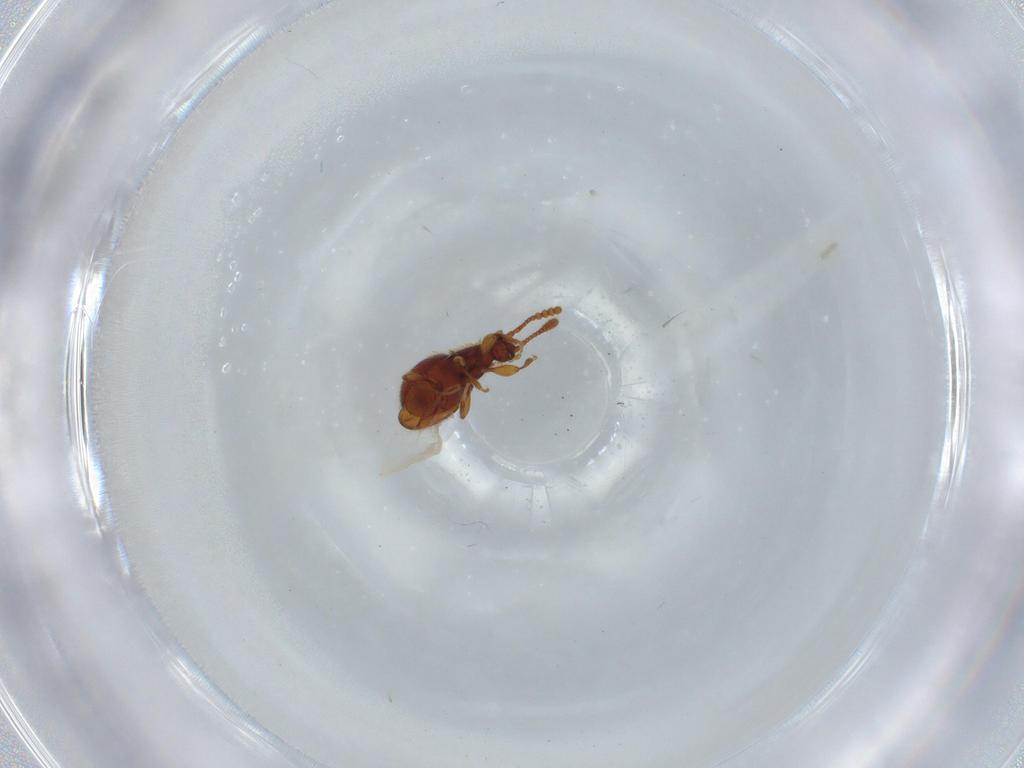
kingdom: Animalia
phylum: Arthropoda
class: Insecta
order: Coleoptera
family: Staphylinidae
